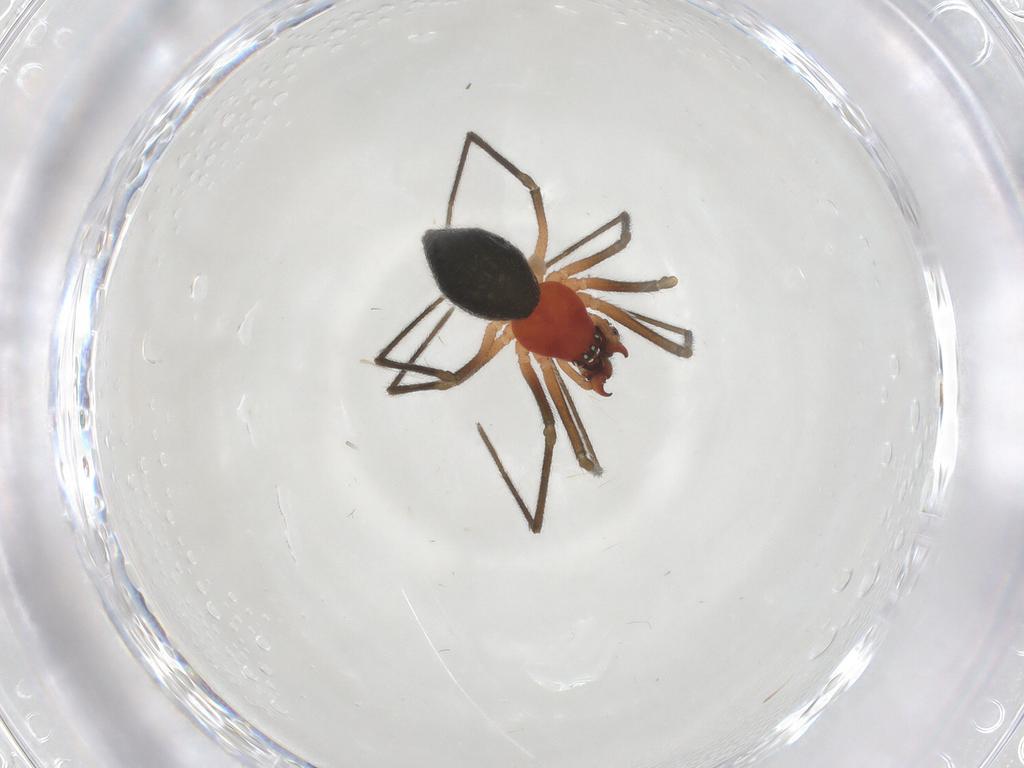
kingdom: Animalia
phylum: Arthropoda
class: Arachnida
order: Araneae
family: Linyphiidae
